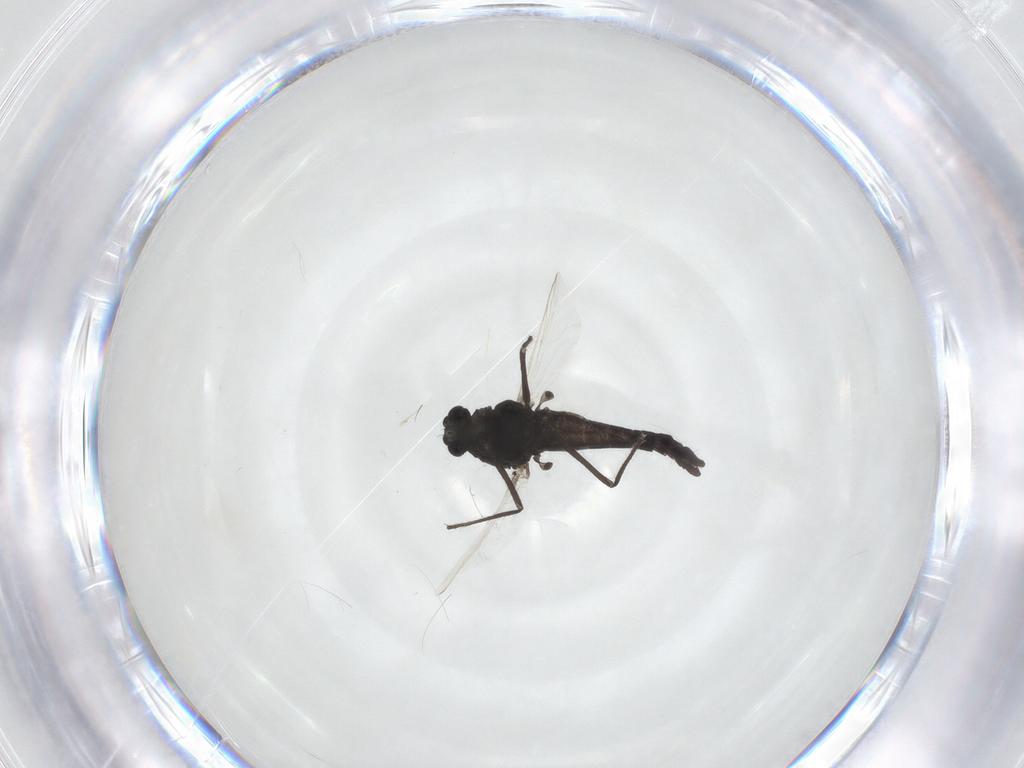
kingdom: Animalia
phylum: Arthropoda
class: Insecta
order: Diptera
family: Chironomidae
